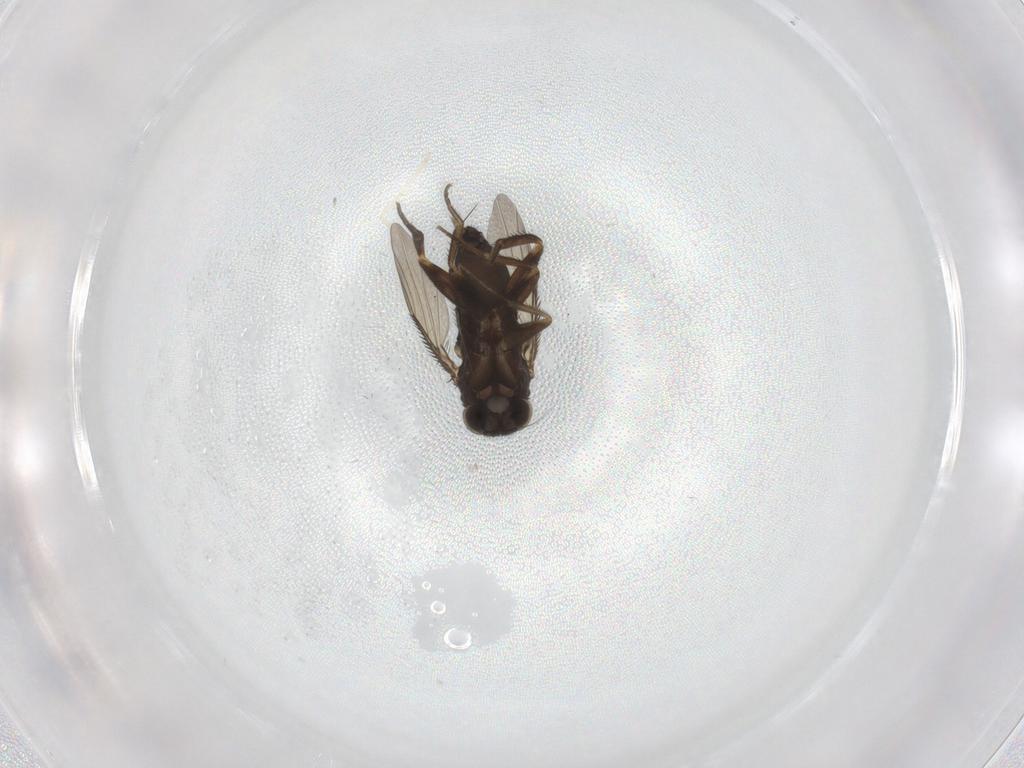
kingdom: Animalia
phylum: Arthropoda
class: Insecta
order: Diptera
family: Phoridae
